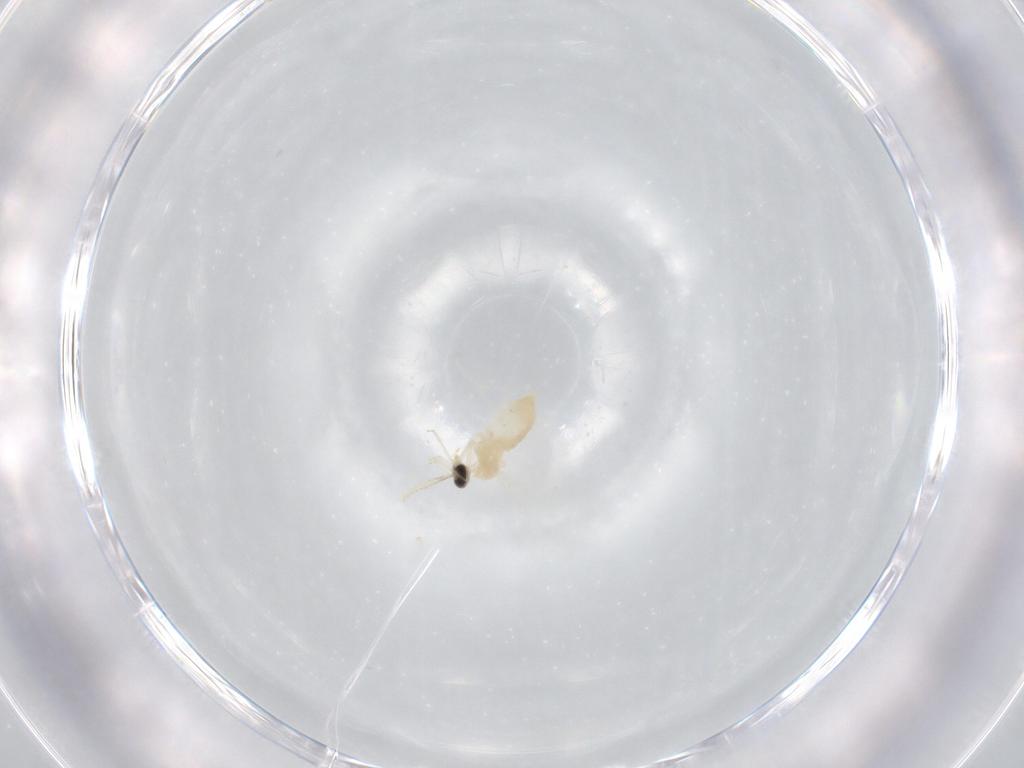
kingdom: Animalia
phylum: Arthropoda
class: Insecta
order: Diptera
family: Cecidomyiidae
